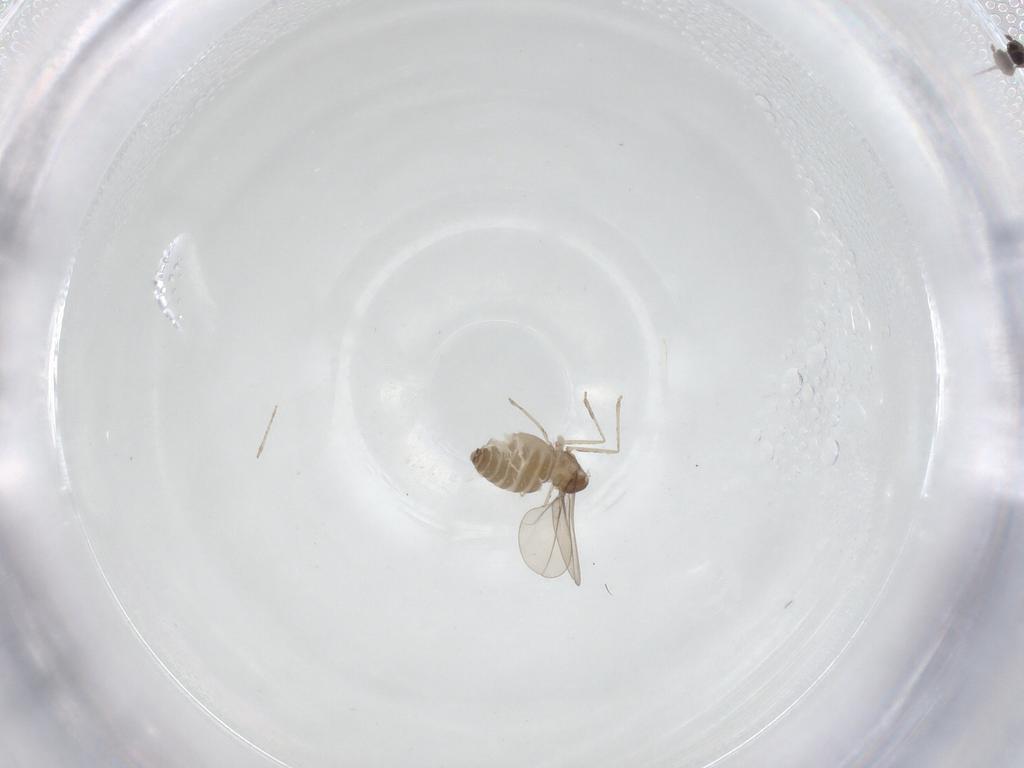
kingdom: Animalia
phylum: Arthropoda
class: Insecta
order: Diptera
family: Cecidomyiidae
